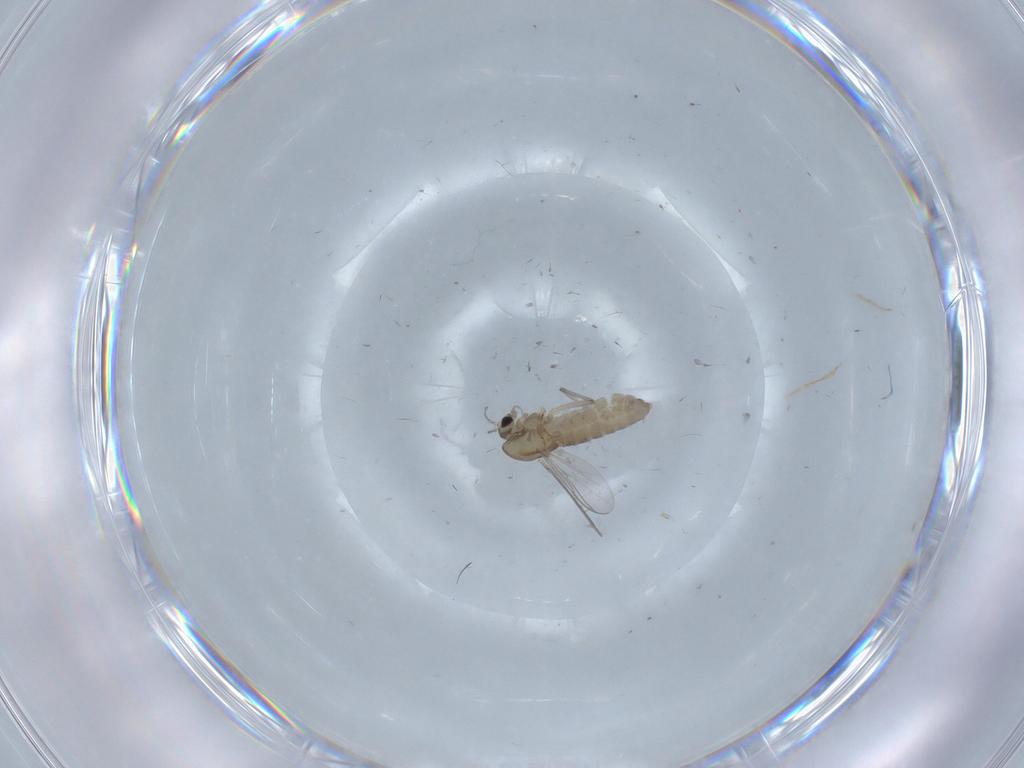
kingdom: Animalia
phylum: Arthropoda
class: Insecta
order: Diptera
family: Chironomidae
